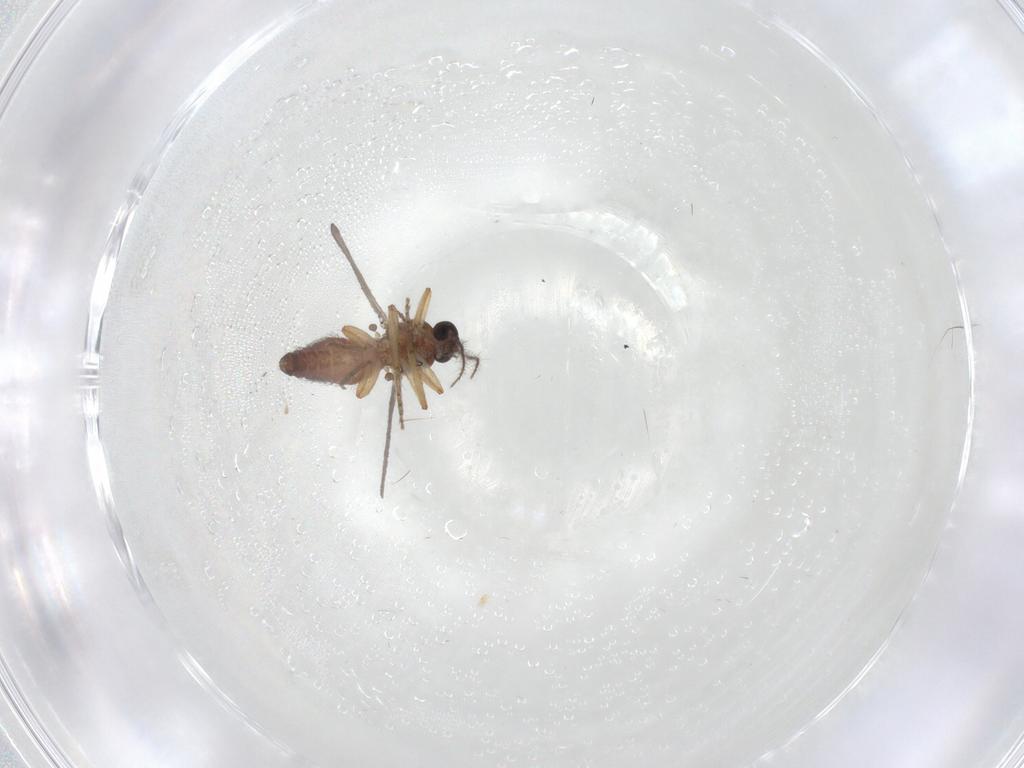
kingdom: Animalia
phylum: Arthropoda
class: Insecta
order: Diptera
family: Ceratopogonidae
